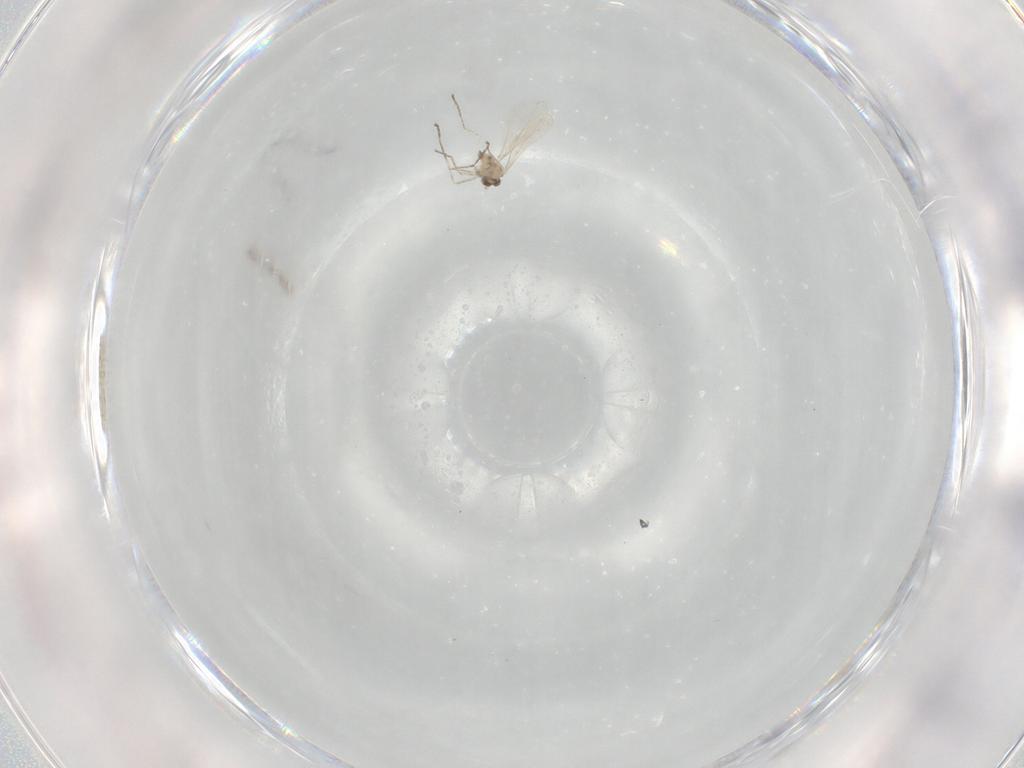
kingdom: Animalia
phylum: Arthropoda
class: Insecta
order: Diptera
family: Cecidomyiidae
